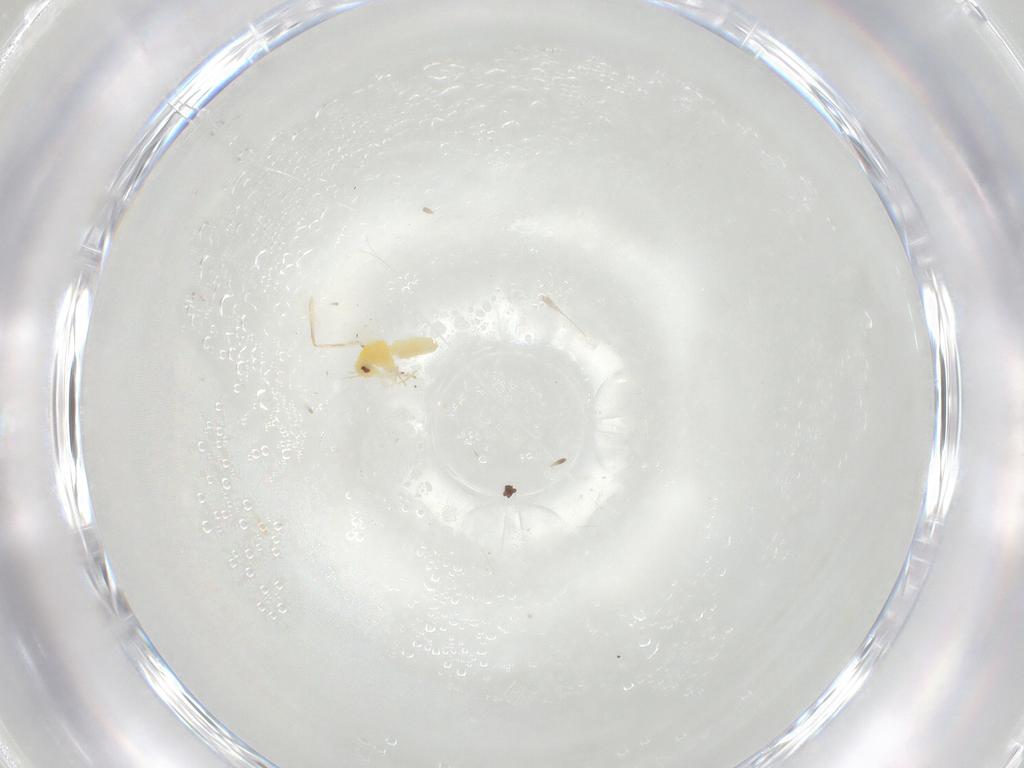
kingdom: Animalia
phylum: Arthropoda
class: Insecta
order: Hemiptera
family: Aleyrodidae
